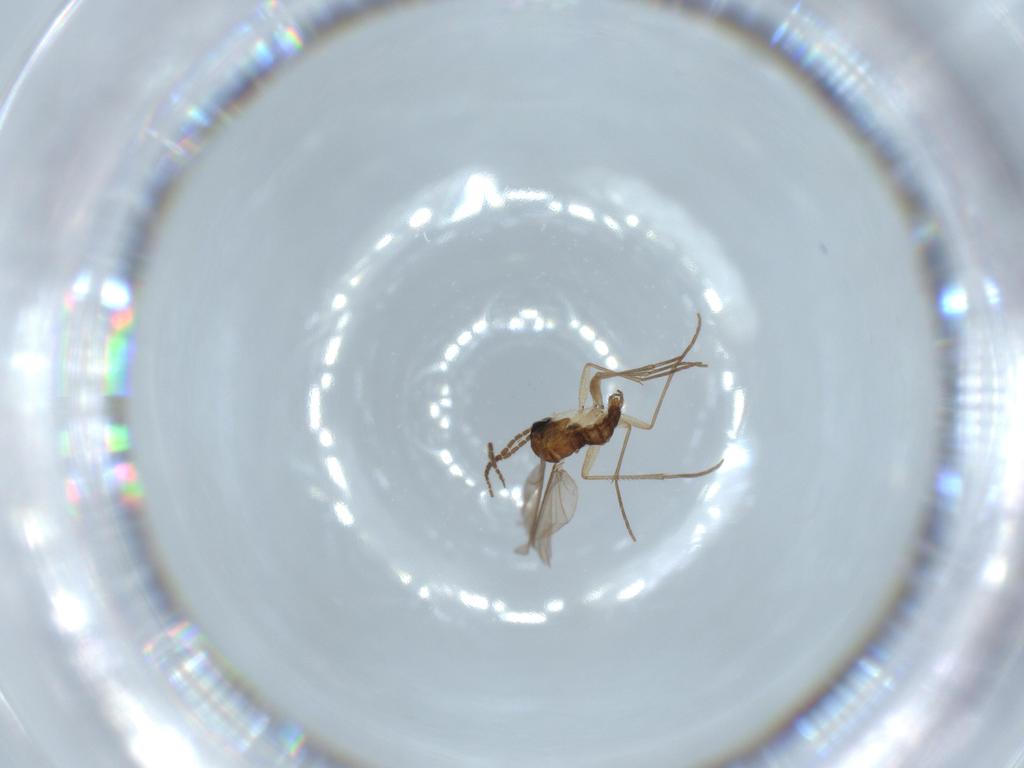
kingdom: Animalia
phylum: Arthropoda
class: Insecta
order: Diptera
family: Sciaridae
